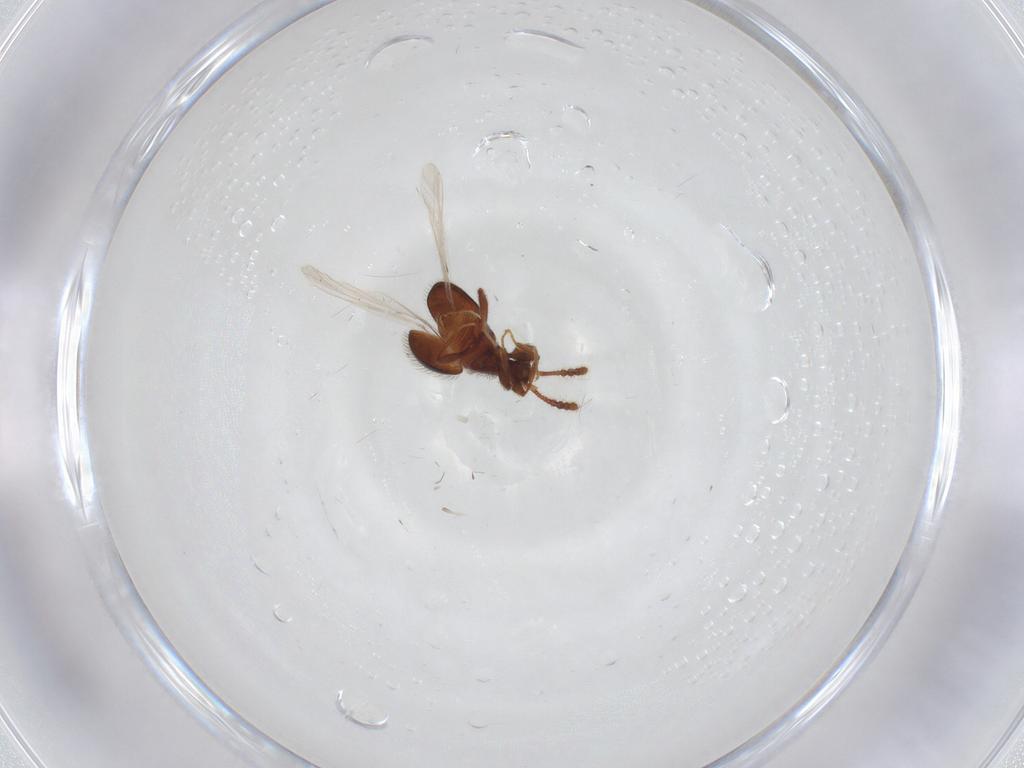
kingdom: Animalia
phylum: Arthropoda
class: Insecta
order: Coleoptera
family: Staphylinidae
